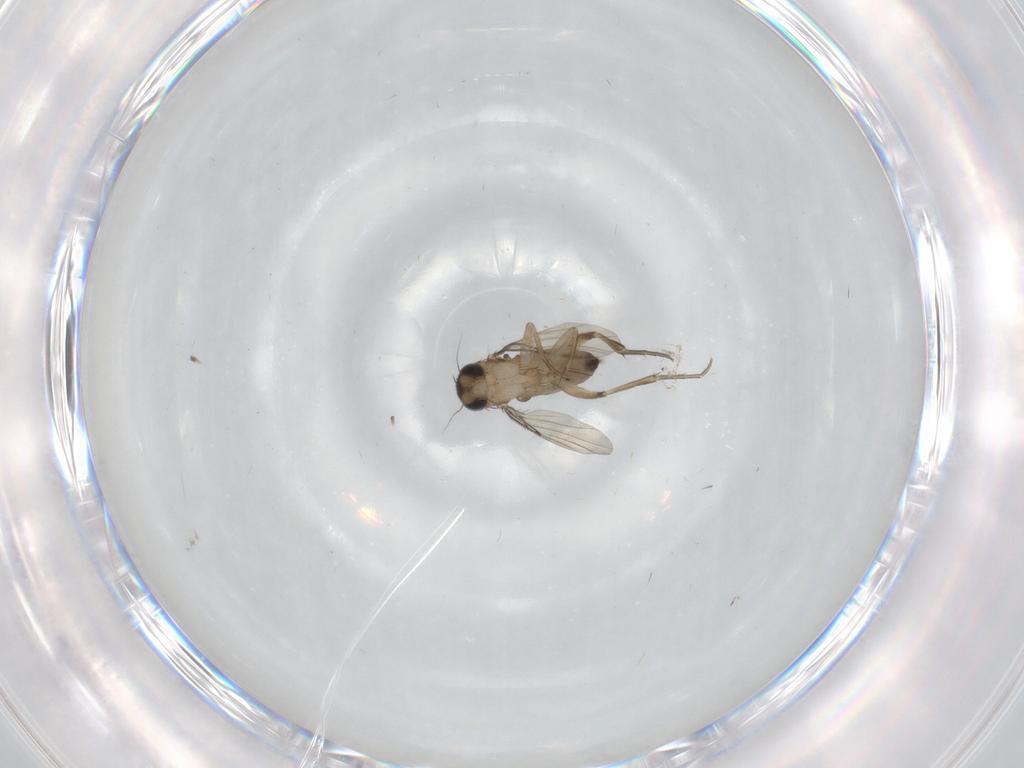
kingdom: Animalia
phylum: Arthropoda
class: Insecta
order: Diptera
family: Phoridae
